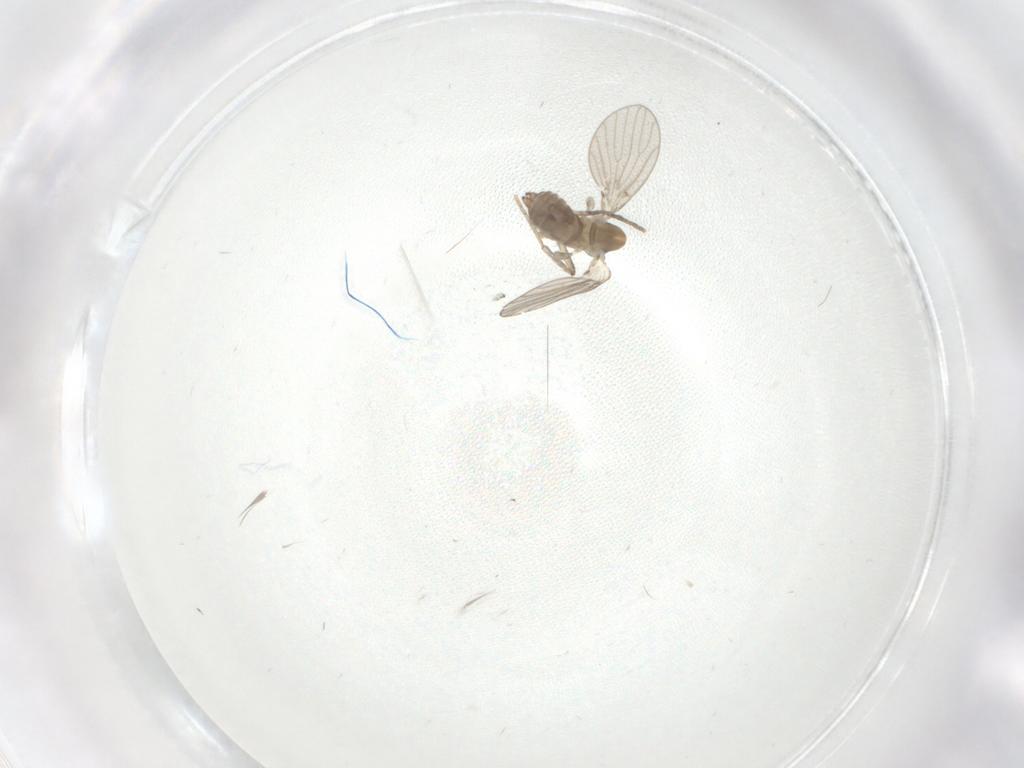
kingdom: Animalia
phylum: Arthropoda
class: Insecta
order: Diptera
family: Psychodidae
